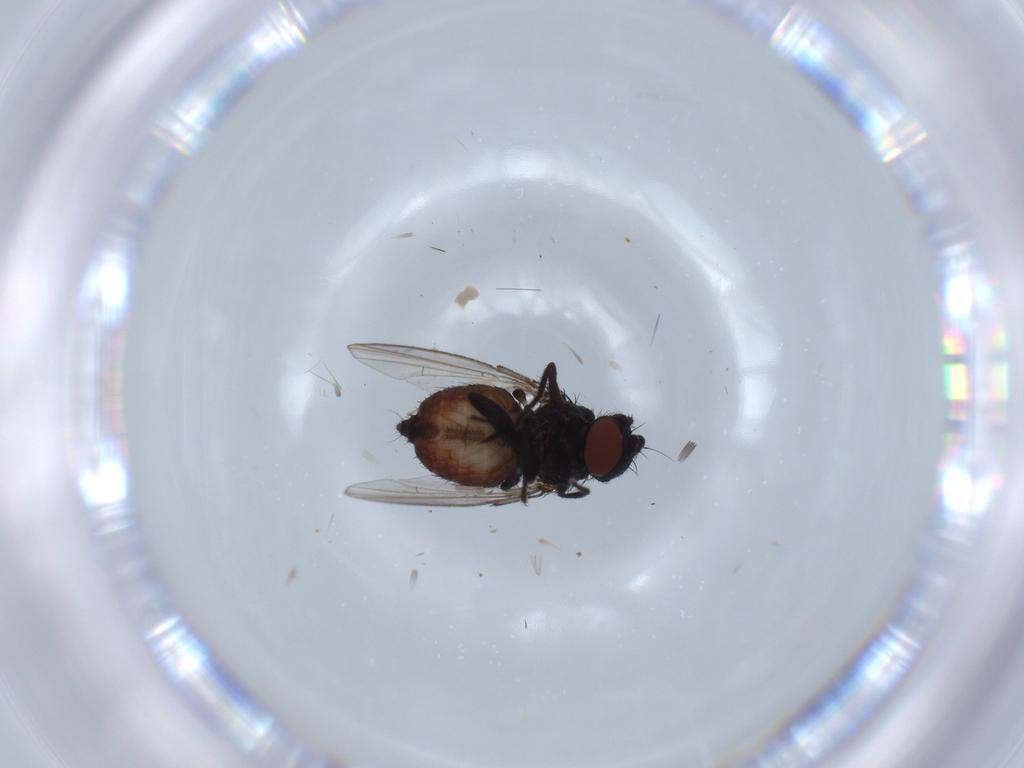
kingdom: Animalia
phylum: Arthropoda
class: Insecta
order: Diptera
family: Milichiidae
